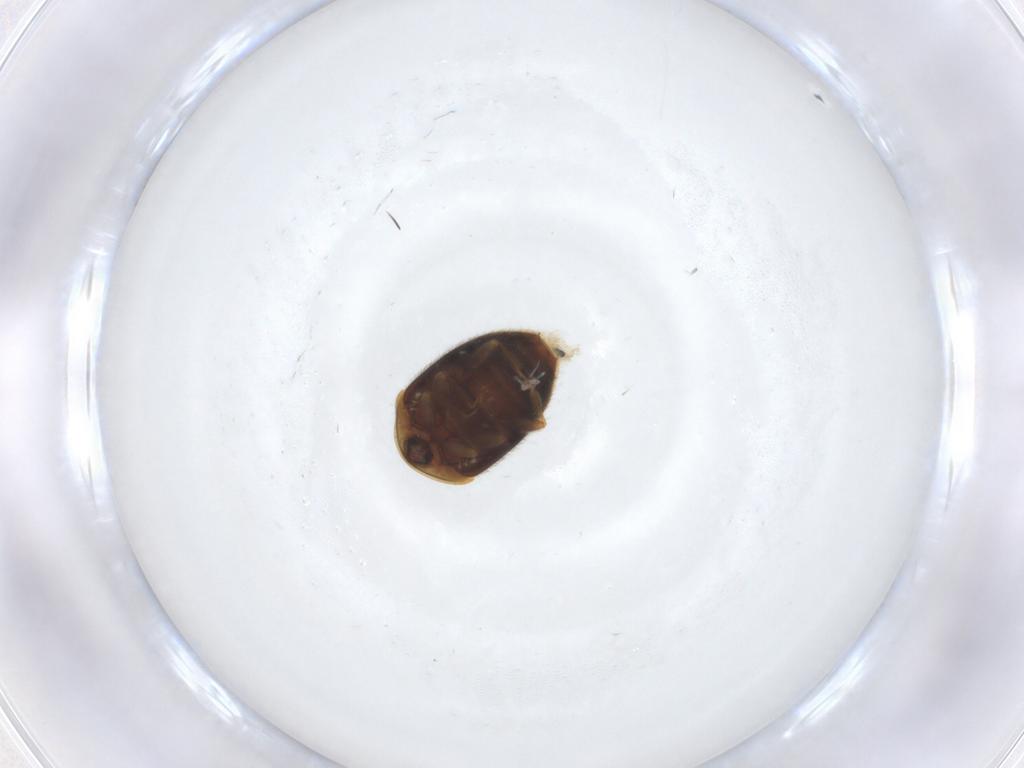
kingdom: Animalia
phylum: Arthropoda
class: Insecta
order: Coleoptera
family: Corylophidae
